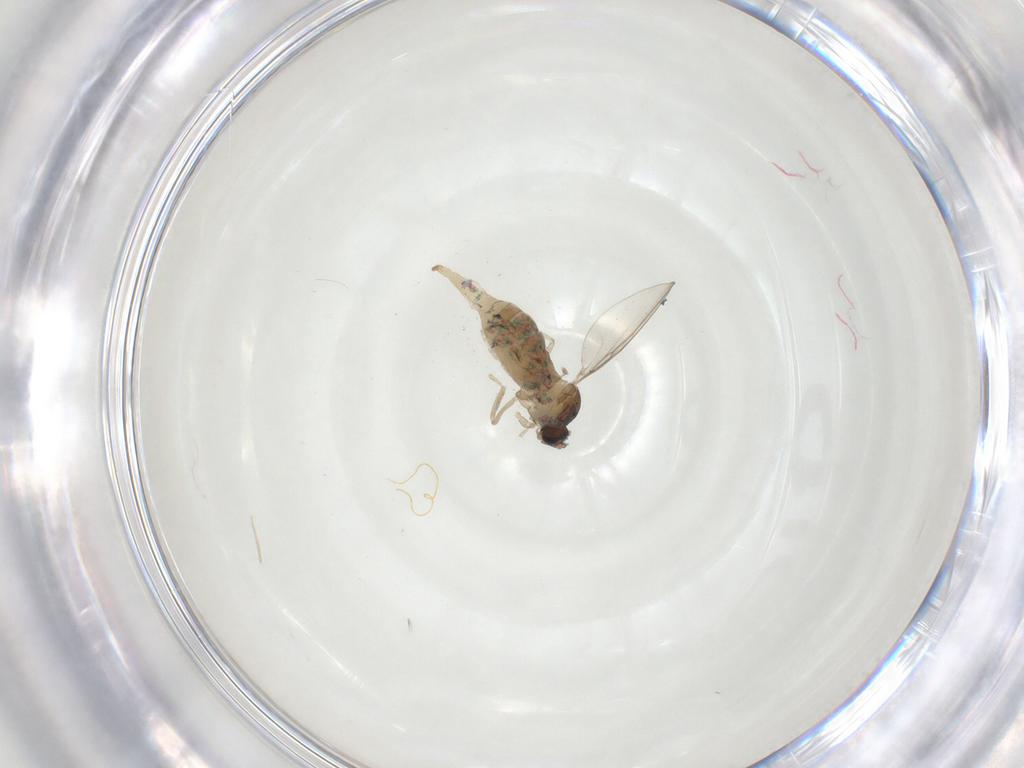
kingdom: Animalia
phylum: Arthropoda
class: Insecta
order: Diptera
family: Cecidomyiidae
